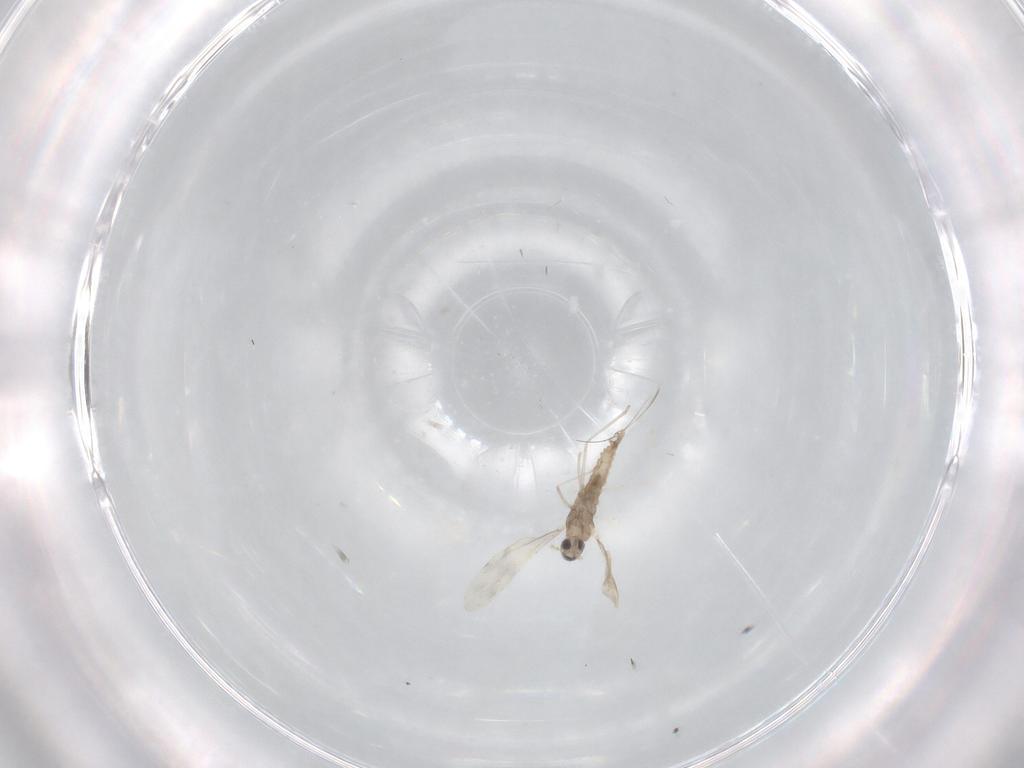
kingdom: Animalia
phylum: Arthropoda
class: Insecta
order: Diptera
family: Cecidomyiidae
